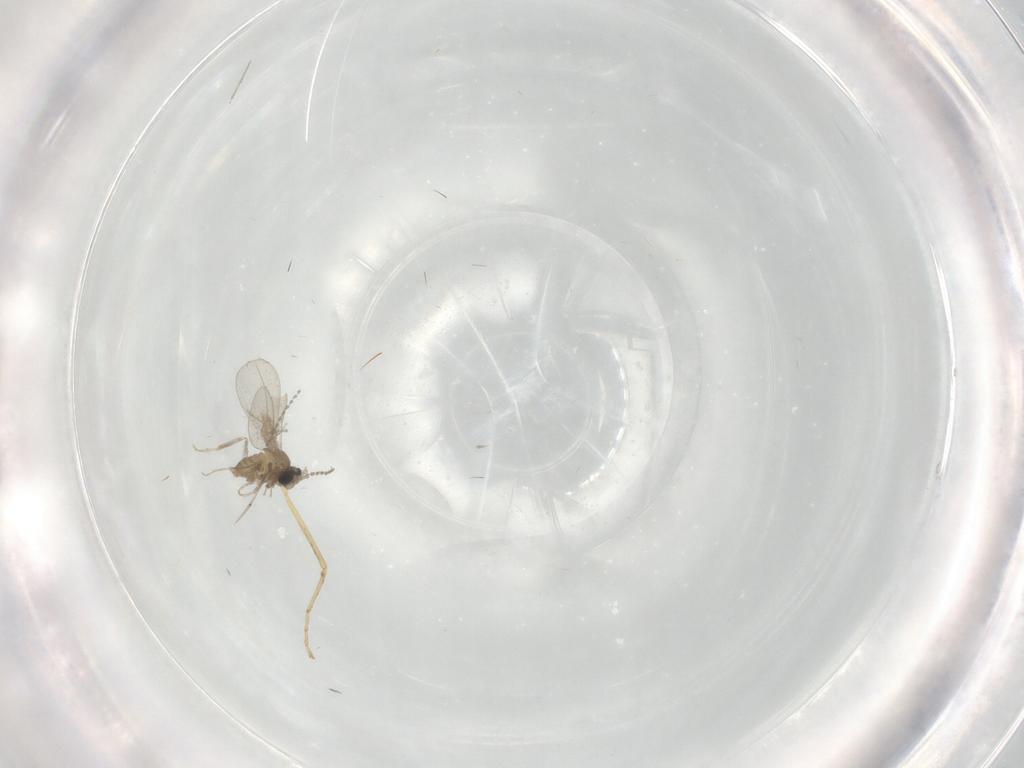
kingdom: Animalia
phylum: Arthropoda
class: Insecta
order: Diptera
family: Cecidomyiidae
